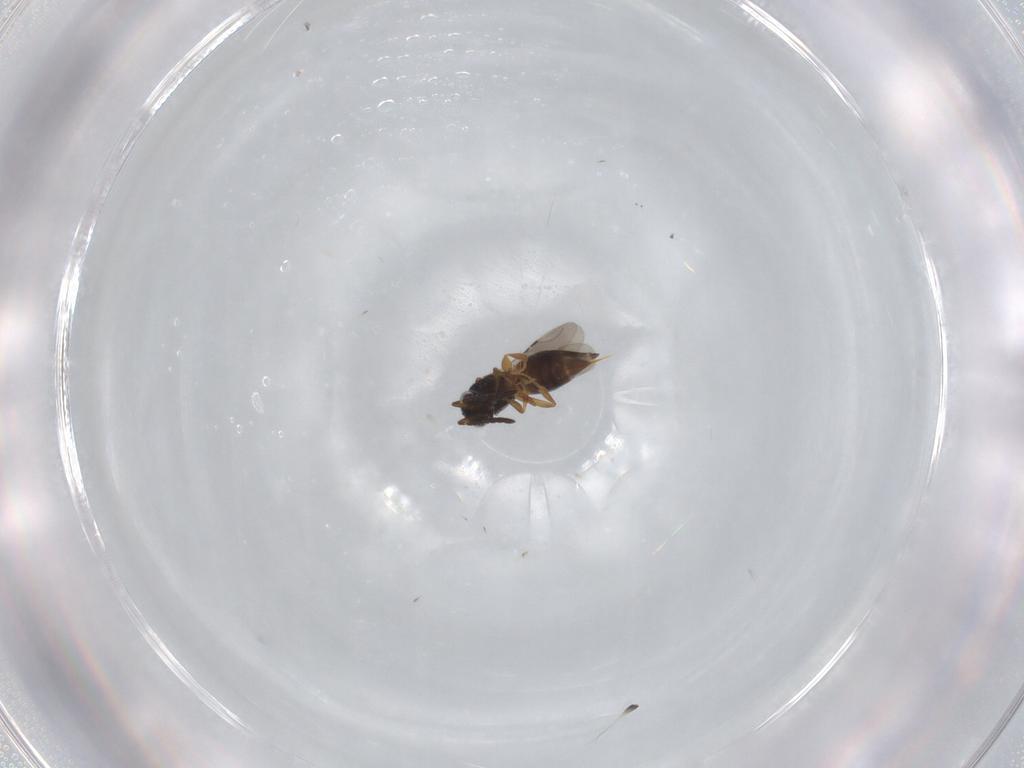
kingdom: Animalia
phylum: Arthropoda
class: Insecta
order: Hymenoptera
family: Ceraphronidae
